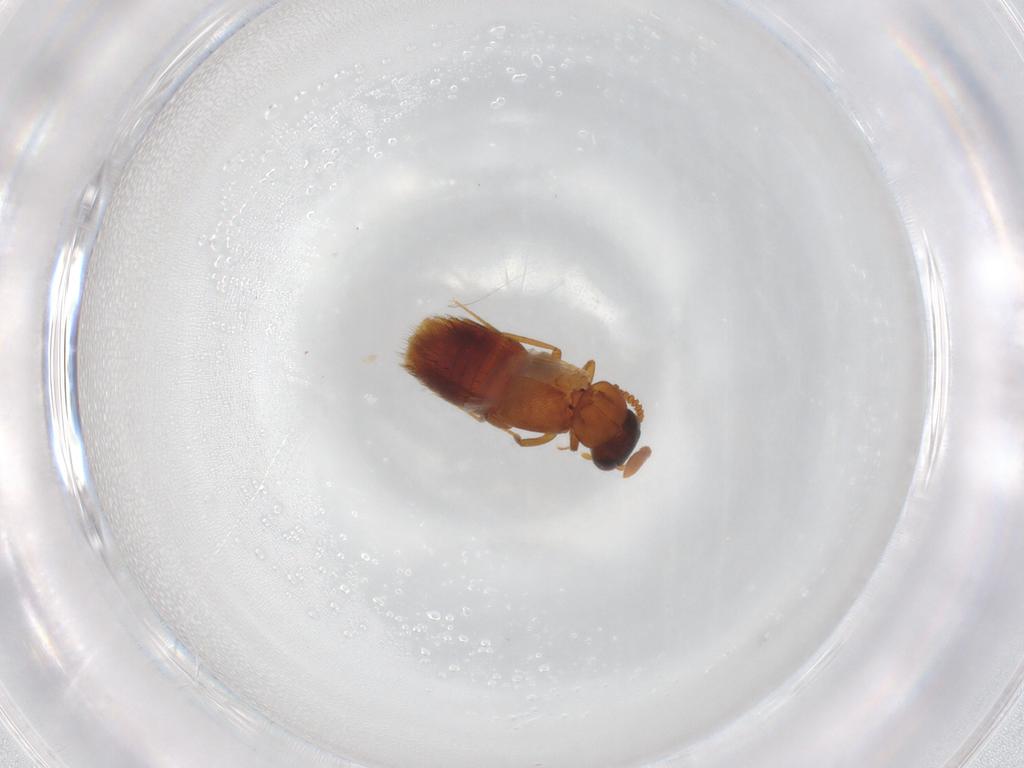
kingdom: Animalia
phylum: Arthropoda
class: Insecta
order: Coleoptera
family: Staphylinidae
